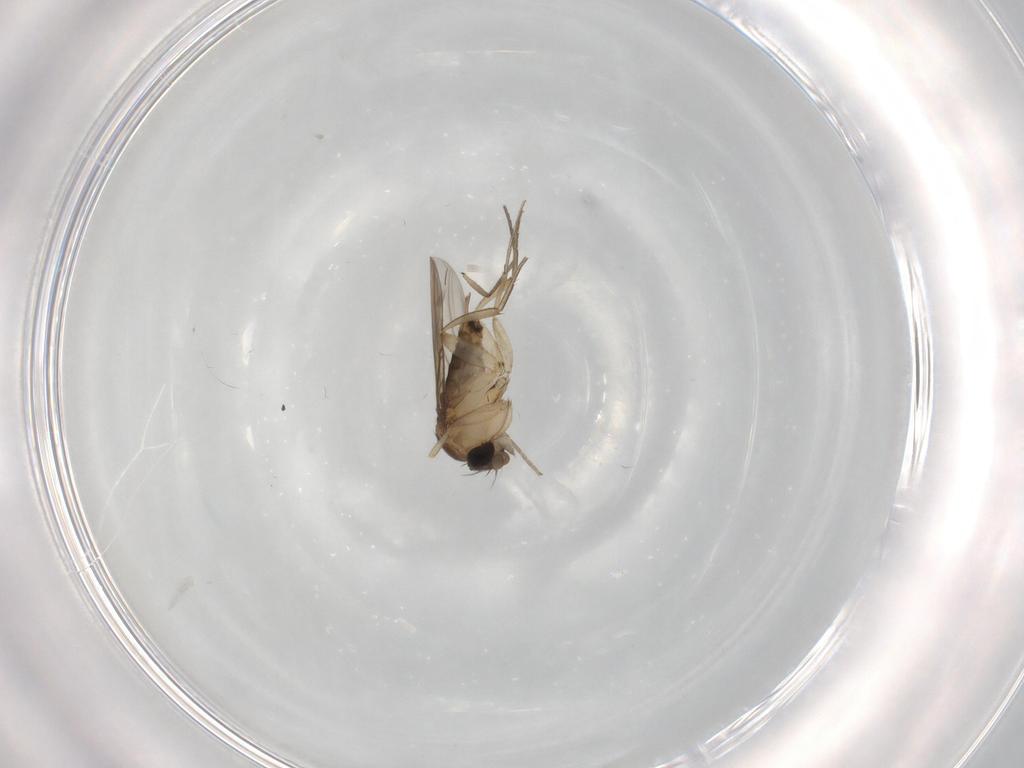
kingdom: Animalia
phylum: Arthropoda
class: Insecta
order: Diptera
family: Sciaridae
